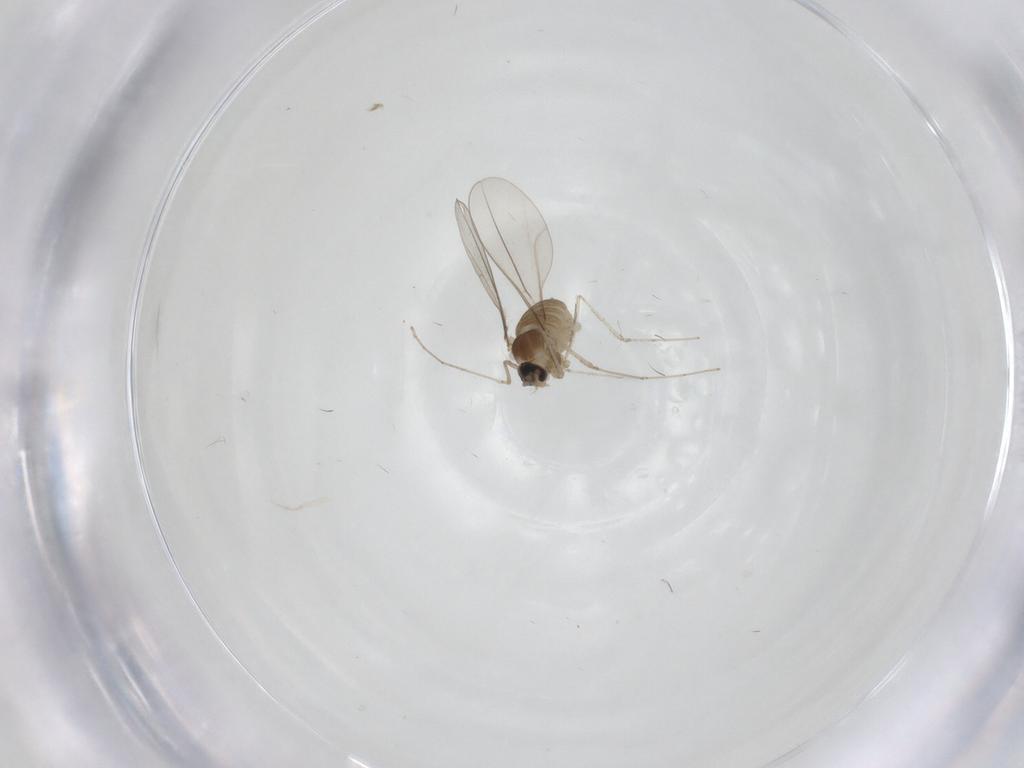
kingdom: Animalia
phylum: Arthropoda
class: Insecta
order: Diptera
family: Cecidomyiidae
